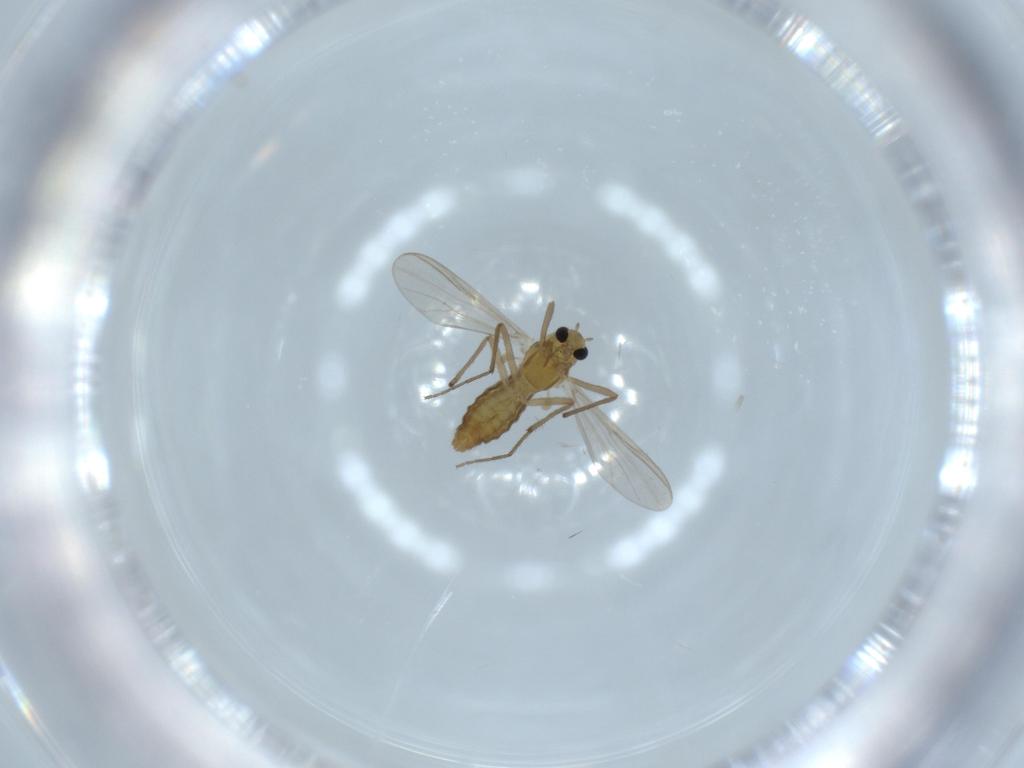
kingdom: Animalia
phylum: Arthropoda
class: Insecta
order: Diptera
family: Chironomidae
